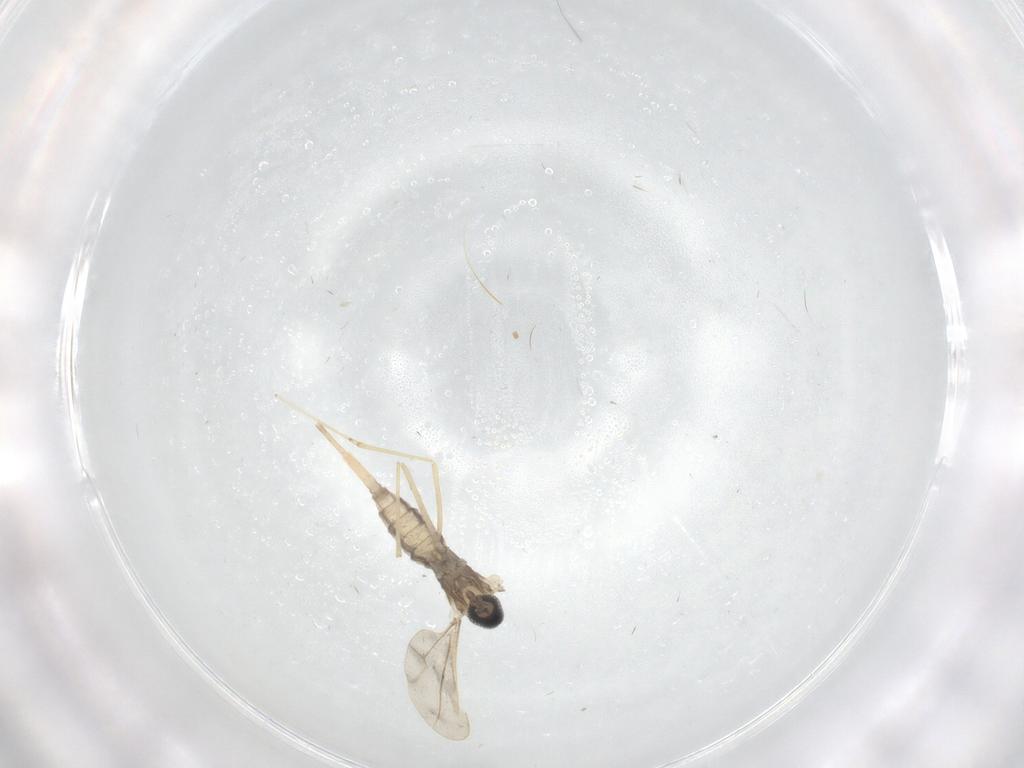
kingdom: Animalia
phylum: Arthropoda
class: Insecta
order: Diptera
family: Cecidomyiidae
